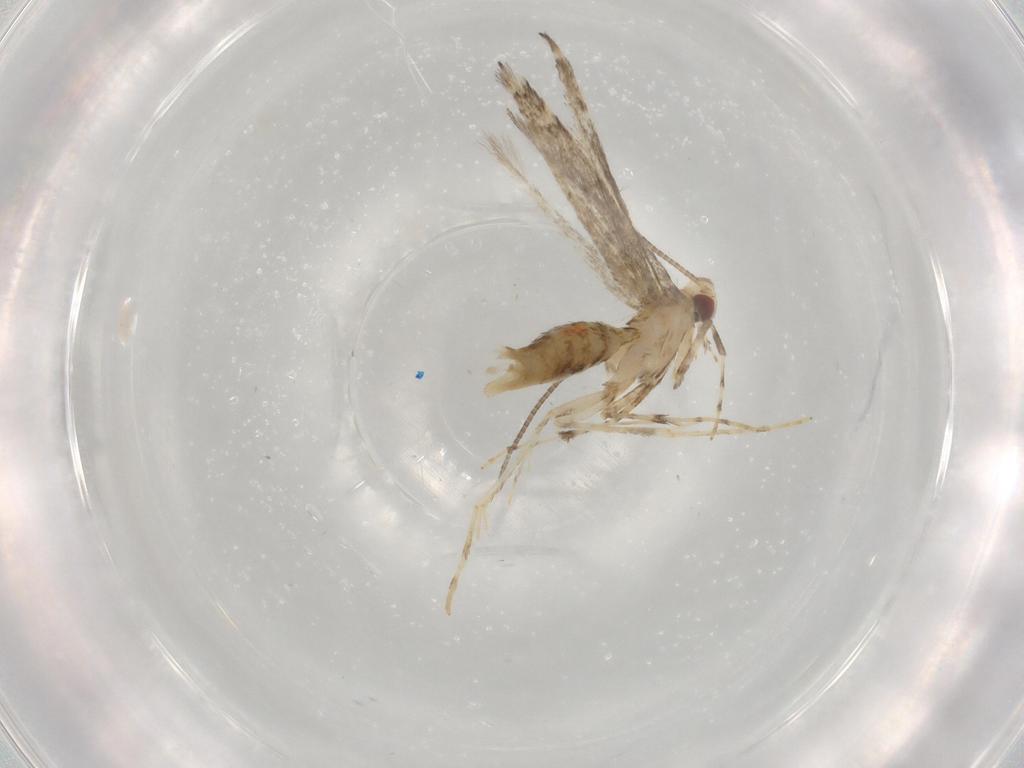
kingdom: Animalia
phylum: Arthropoda
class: Insecta
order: Lepidoptera
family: Gracillariidae
